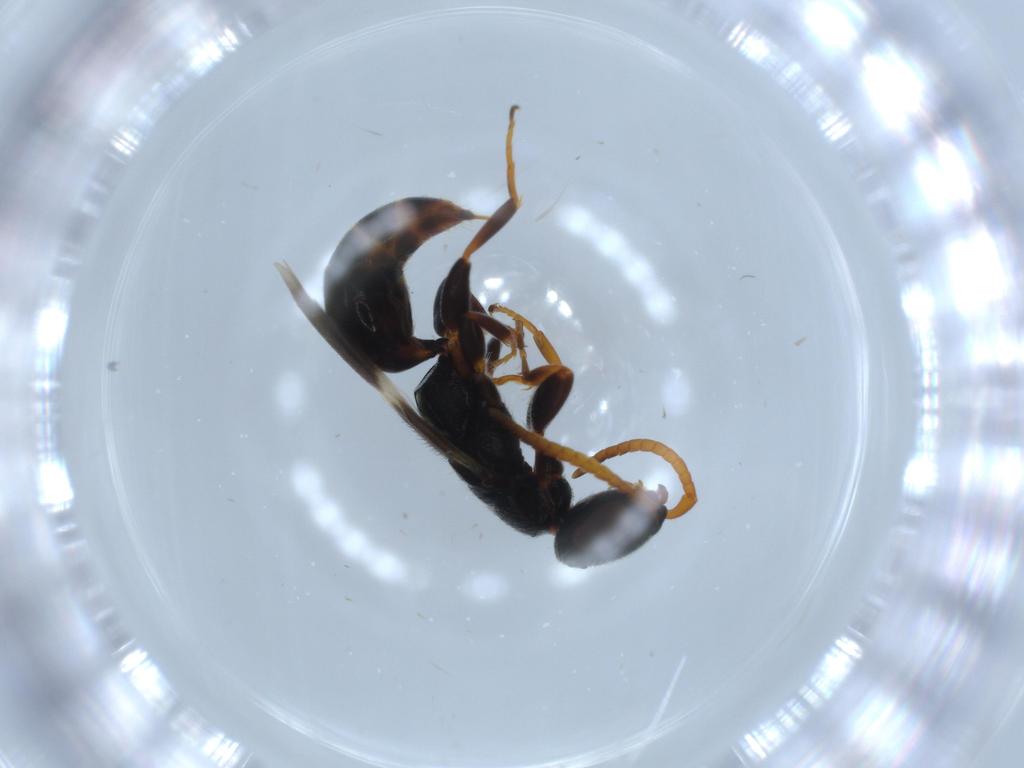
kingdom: Animalia
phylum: Arthropoda
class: Insecta
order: Hymenoptera
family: Bethylidae
